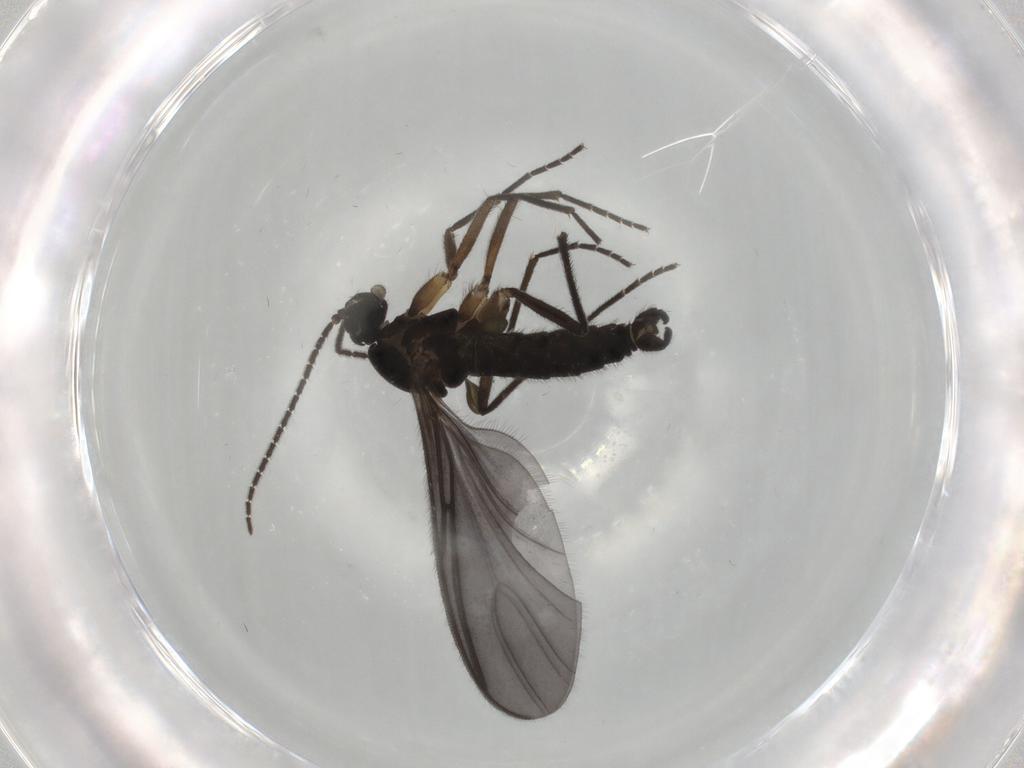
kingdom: Animalia
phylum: Arthropoda
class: Insecta
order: Diptera
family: Sciaridae
